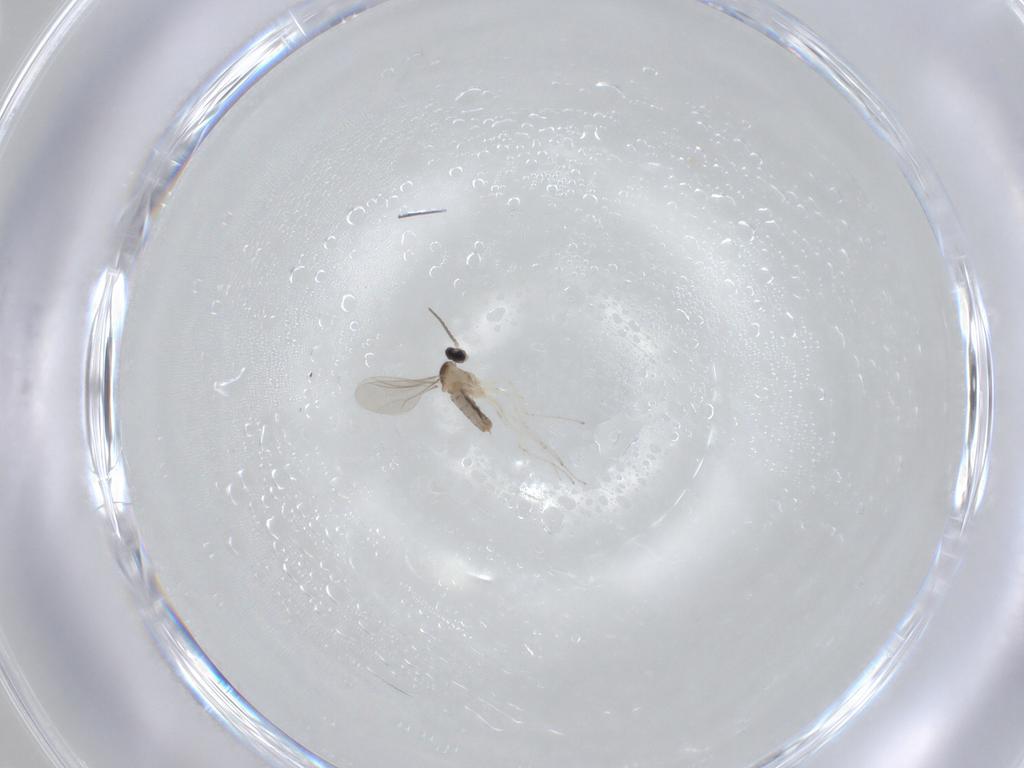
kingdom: Animalia
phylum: Arthropoda
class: Insecta
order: Diptera
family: Cecidomyiidae
